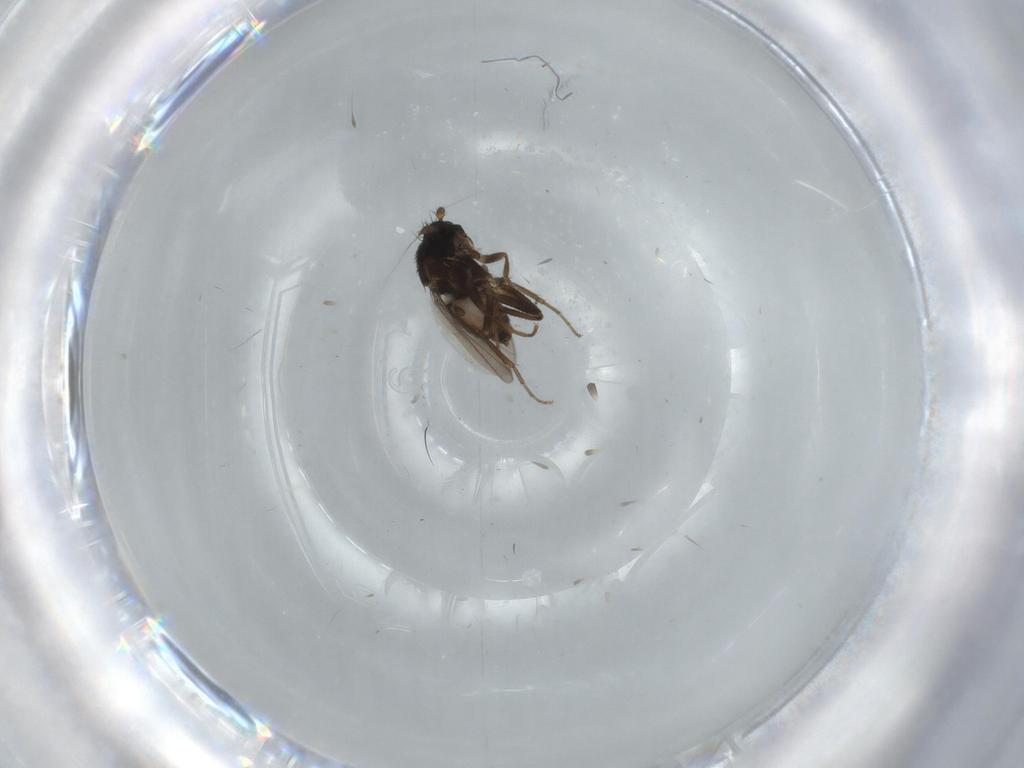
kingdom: Animalia
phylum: Arthropoda
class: Insecta
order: Diptera
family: Sphaeroceridae
